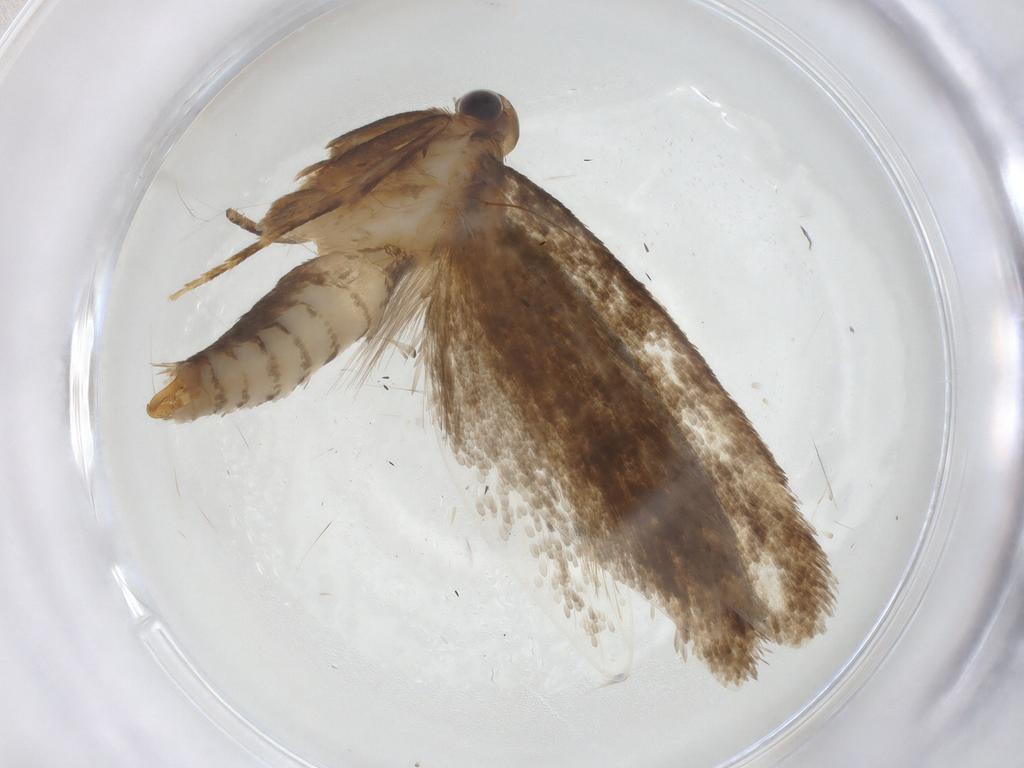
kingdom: Animalia
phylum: Arthropoda
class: Insecta
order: Lepidoptera
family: Tineidae
